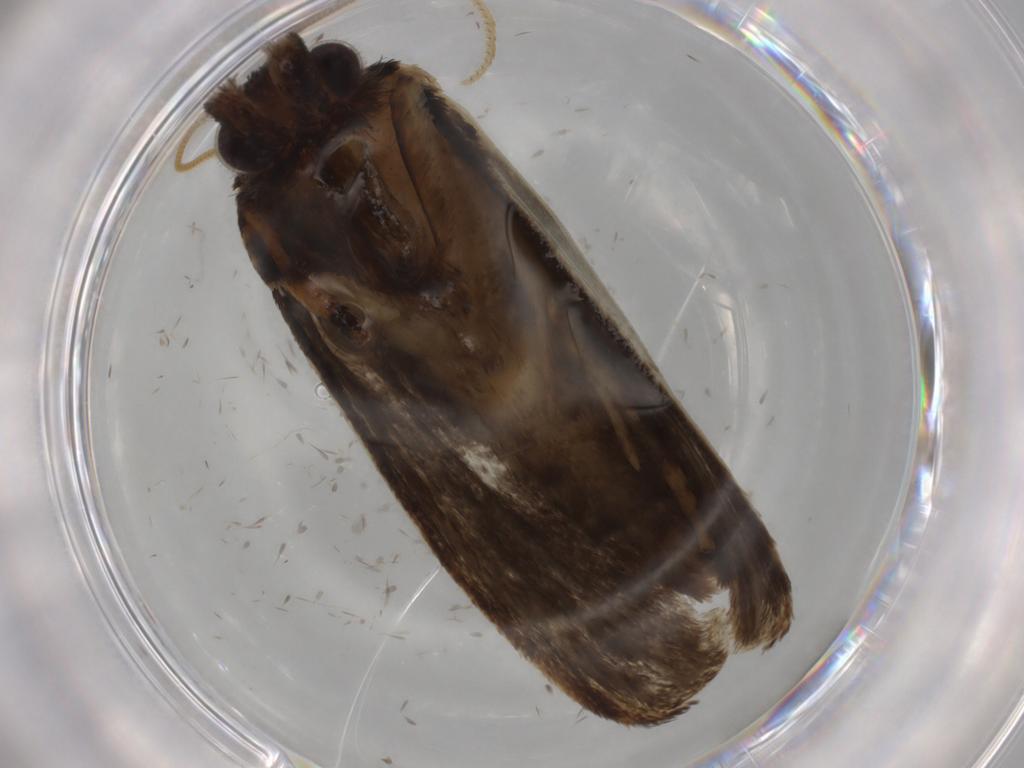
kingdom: Animalia
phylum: Arthropoda
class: Insecta
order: Lepidoptera
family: Tineidae
